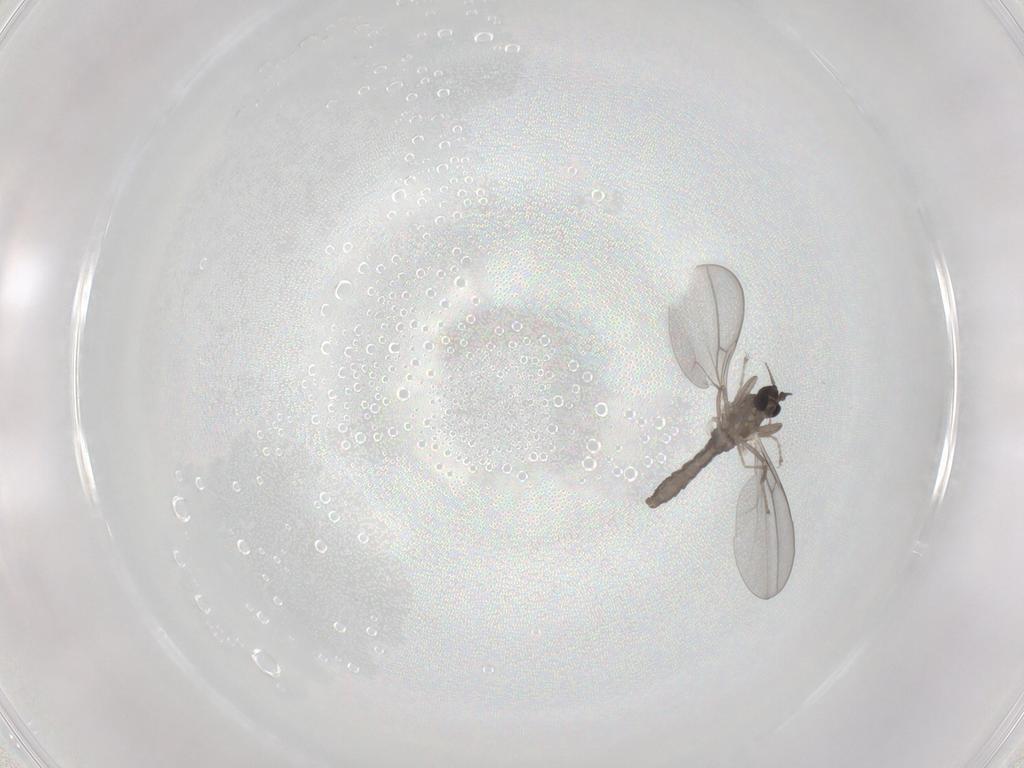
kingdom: Animalia
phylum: Arthropoda
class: Insecta
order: Diptera
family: Cecidomyiidae
